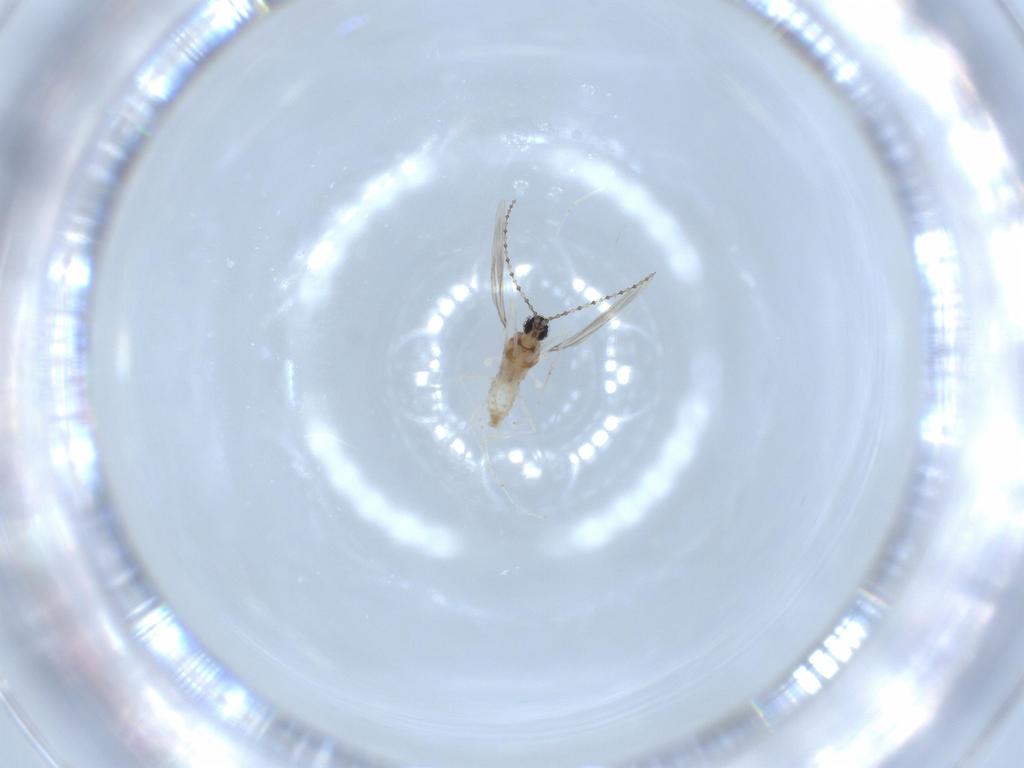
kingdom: Animalia
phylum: Arthropoda
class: Insecta
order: Diptera
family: Cecidomyiidae
